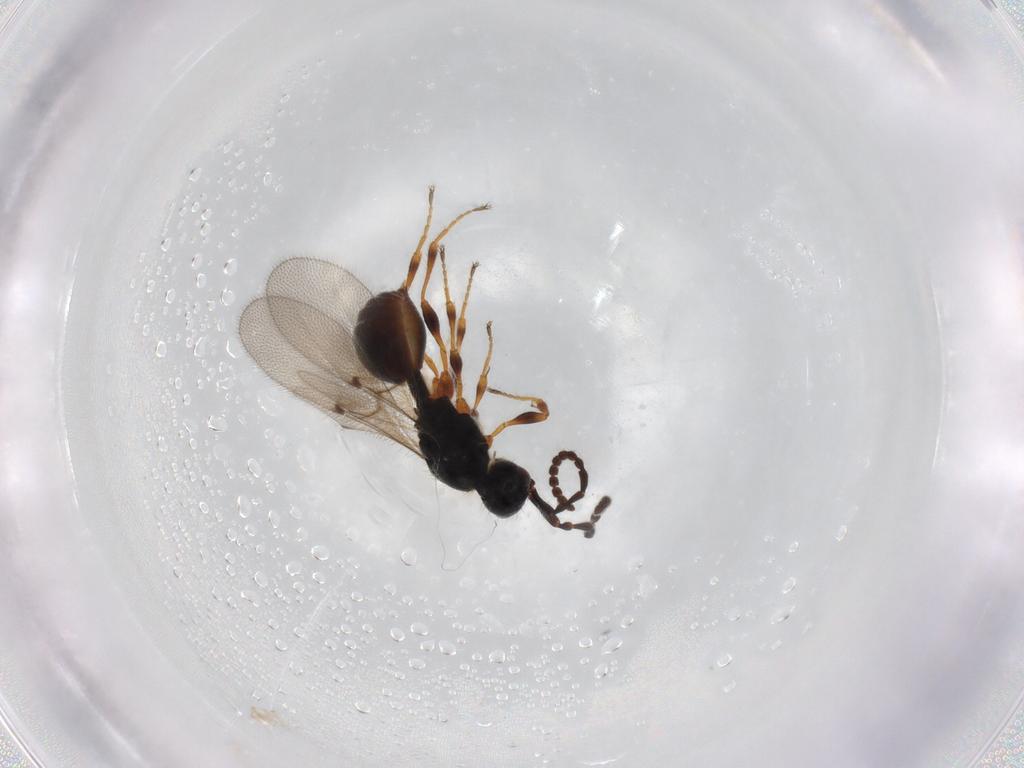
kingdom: Animalia
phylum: Arthropoda
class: Insecta
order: Hymenoptera
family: Diapriidae
